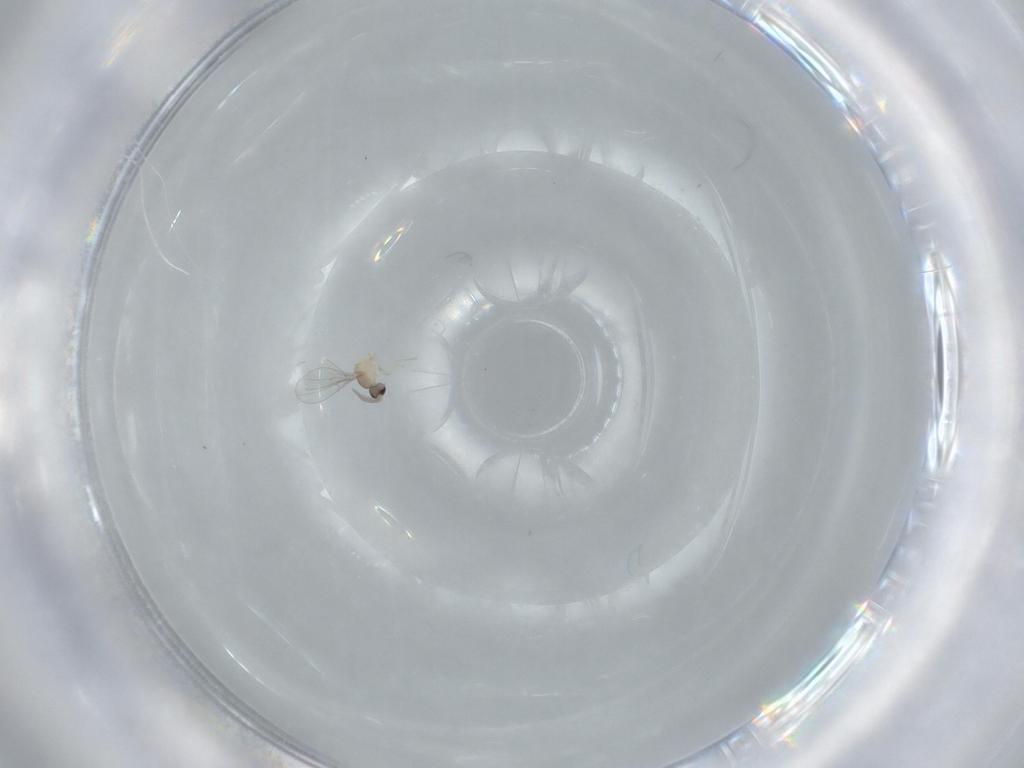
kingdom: Animalia
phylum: Arthropoda
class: Insecta
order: Diptera
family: Cecidomyiidae
